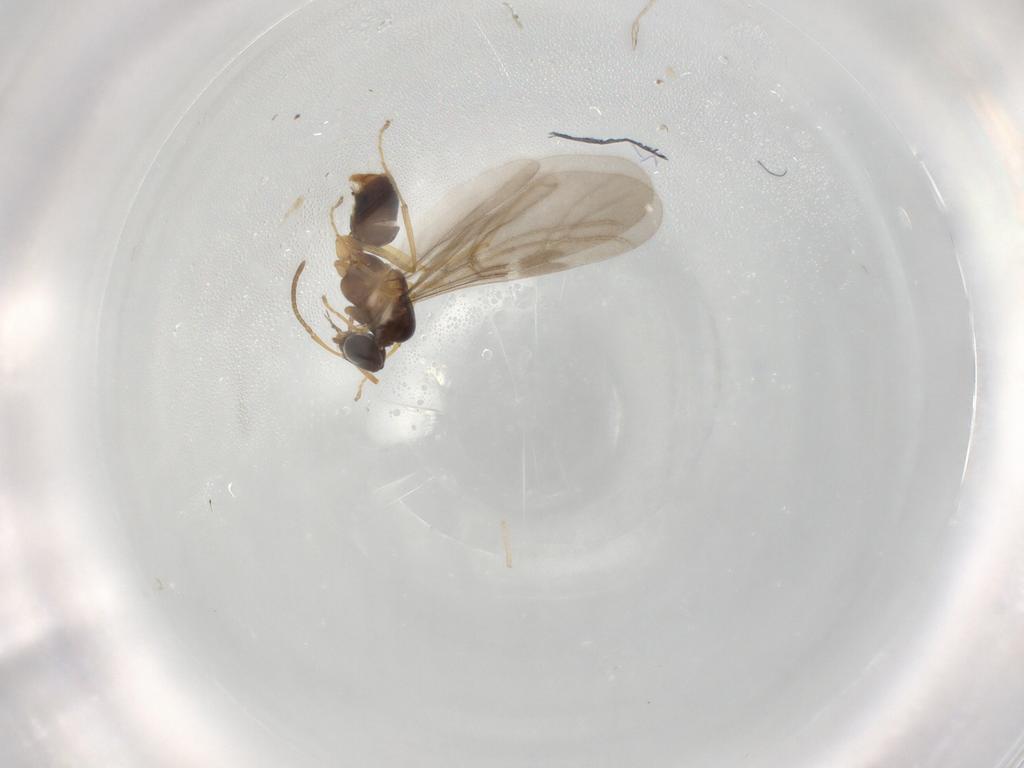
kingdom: Animalia
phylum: Arthropoda
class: Insecta
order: Hymenoptera
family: Formicidae
